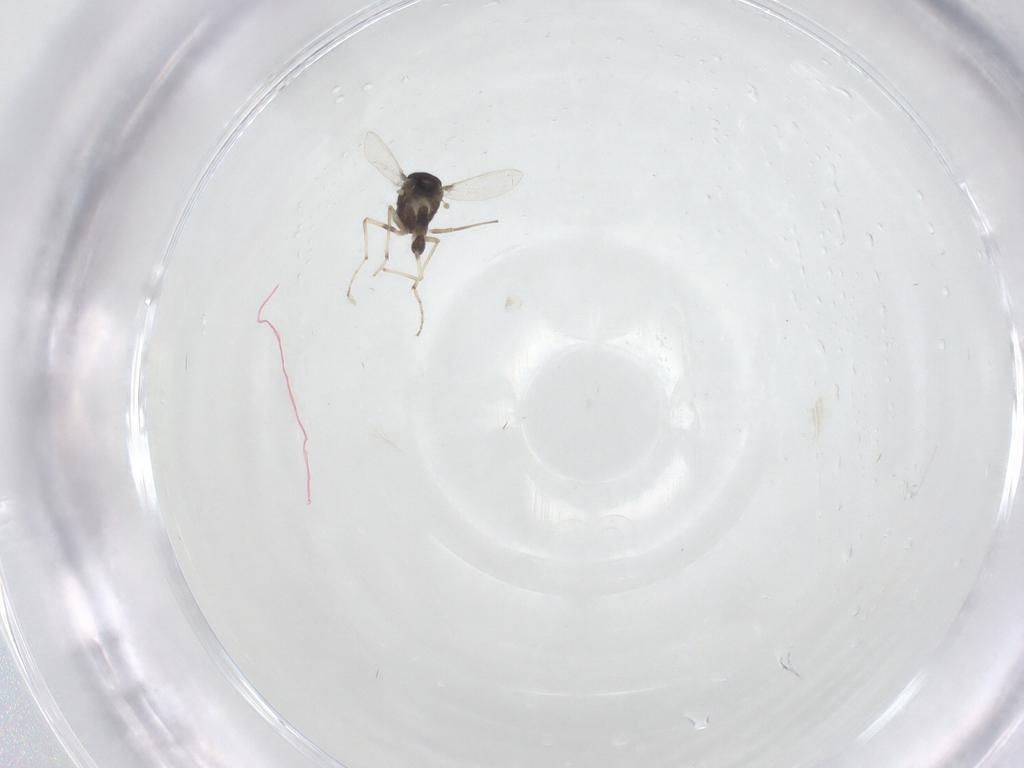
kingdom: Animalia
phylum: Arthropoda
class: Insecta
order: Diptera
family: Chironomidae
